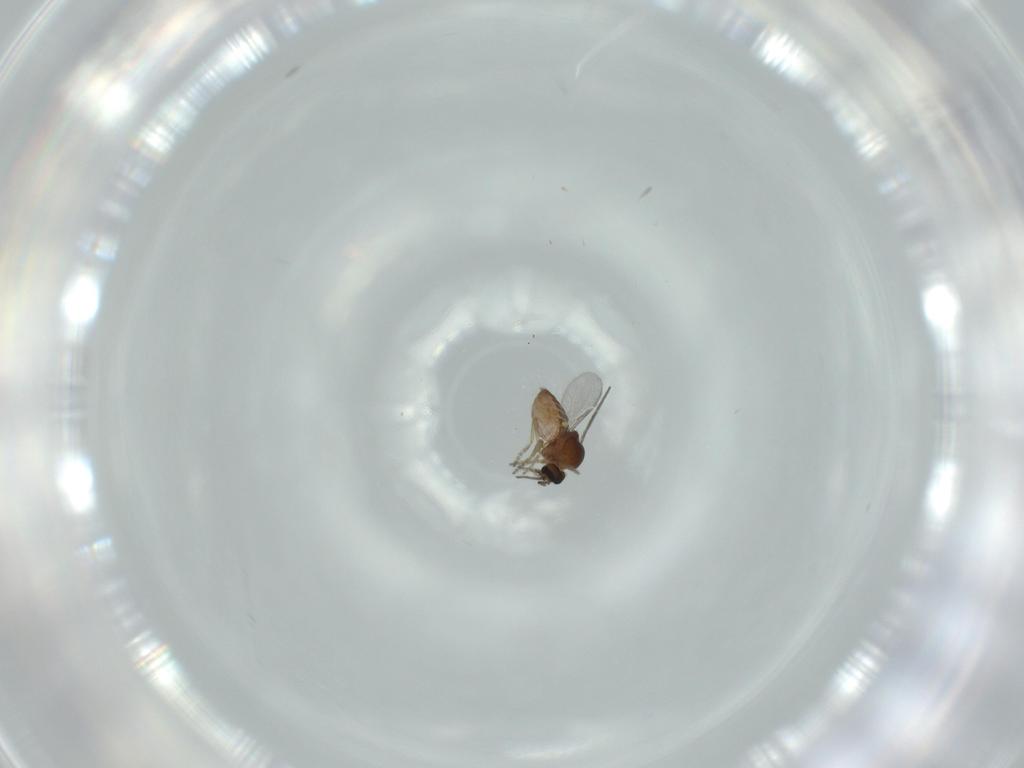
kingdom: Animalia
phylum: Arthropoda
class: Insecta
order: Diptera
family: Ceratopogonidae
